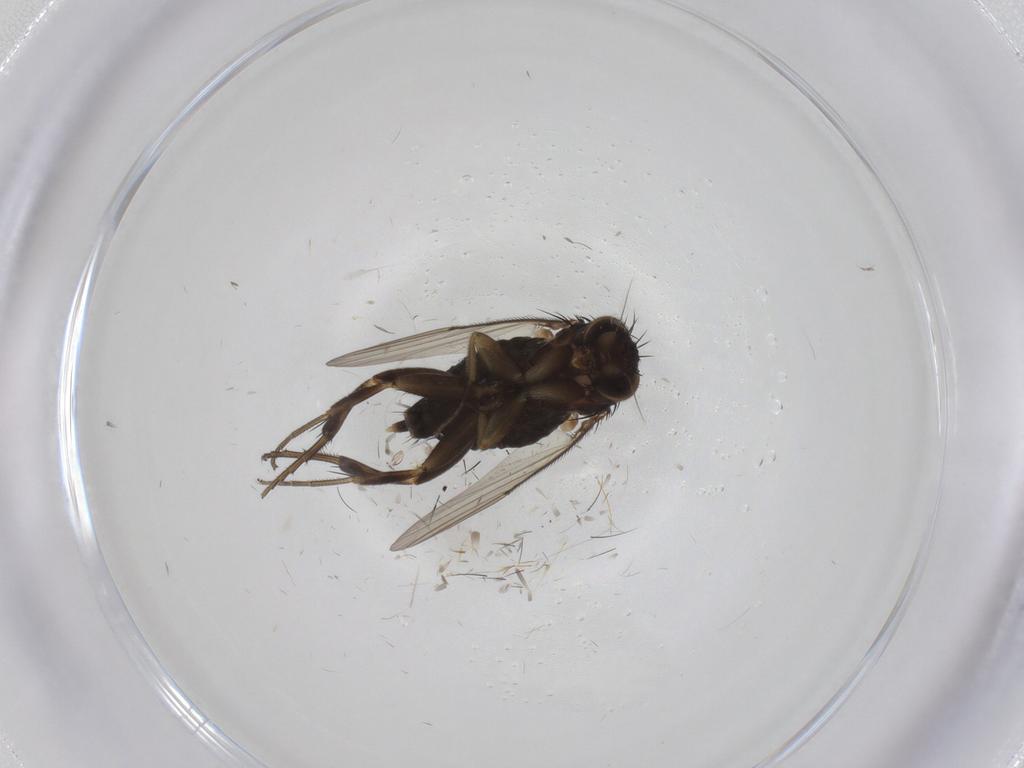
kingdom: Animalia
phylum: Arthropoda
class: Insecta
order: Diptera
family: Phoridae
